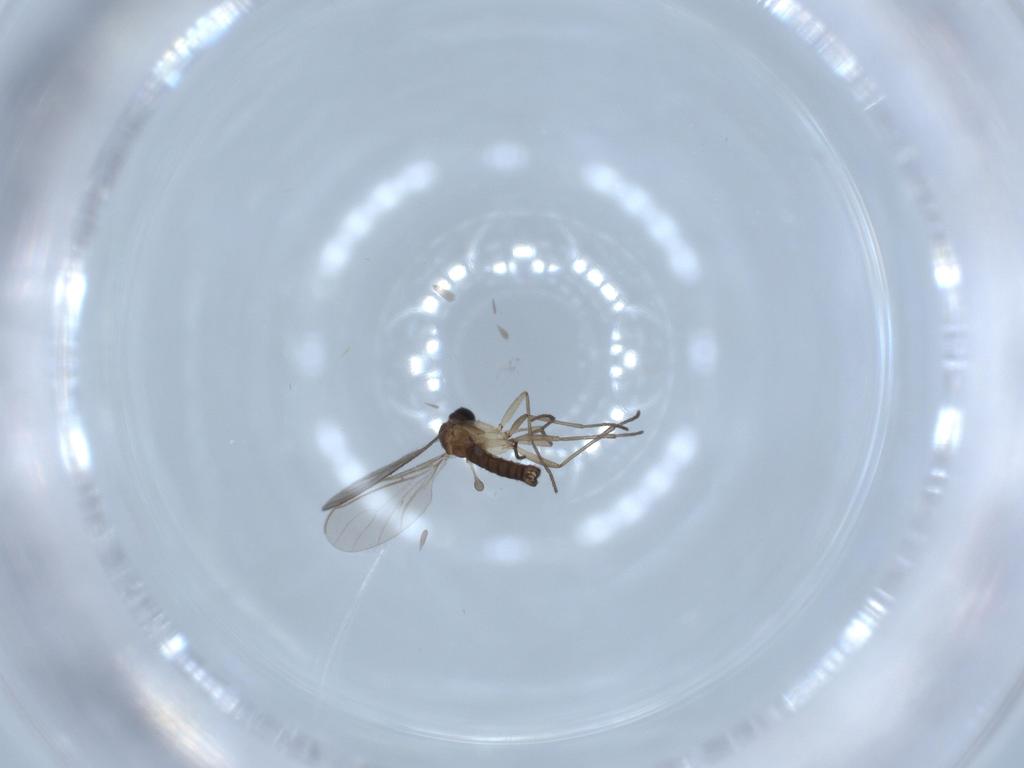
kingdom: Animalia
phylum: Arthropoda
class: Insecta
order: Diptera
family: Sciaridae
